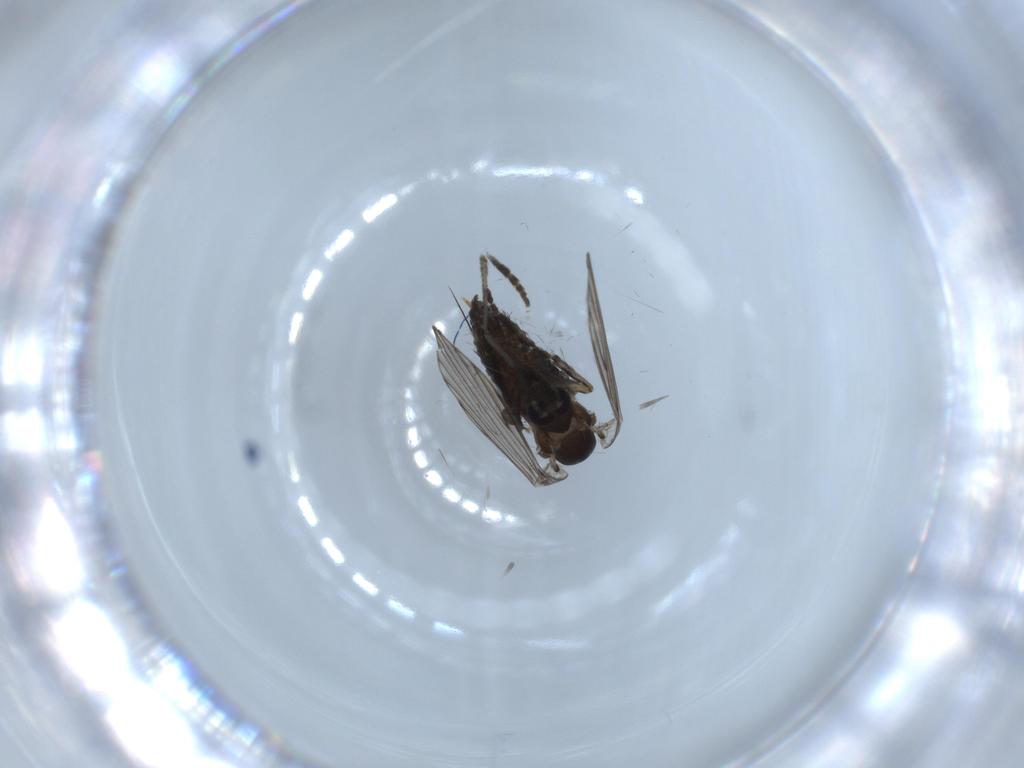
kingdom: Animalia
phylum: Arthropoda
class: Insecta
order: Diptera
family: Psychodidae
